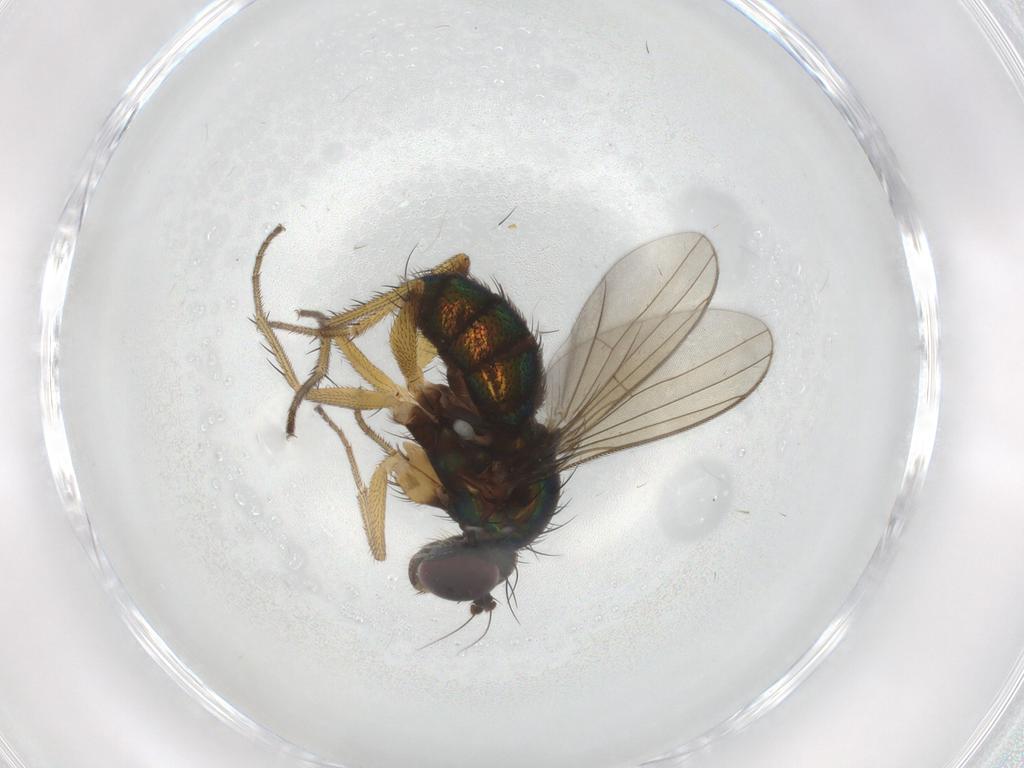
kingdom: Animalia
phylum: Arthropoda
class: Insecta
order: Diptera
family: Dolichopodidae
